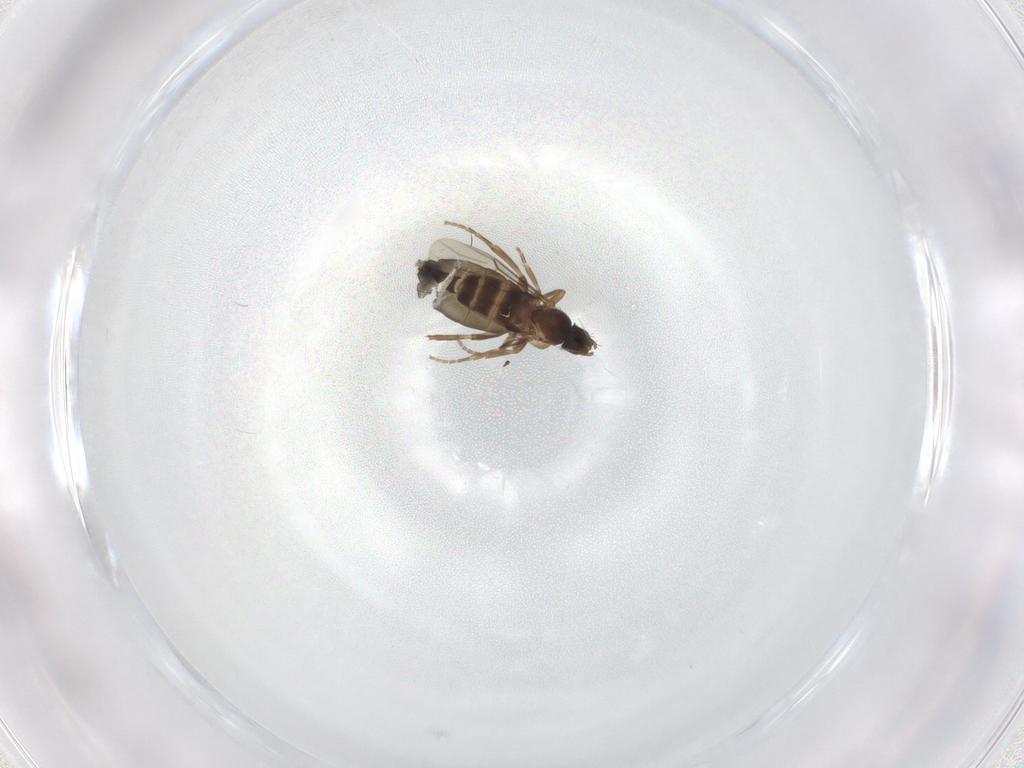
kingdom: Animalia
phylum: Arthropoda
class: Insecta
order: Diptera
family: Phoridae
